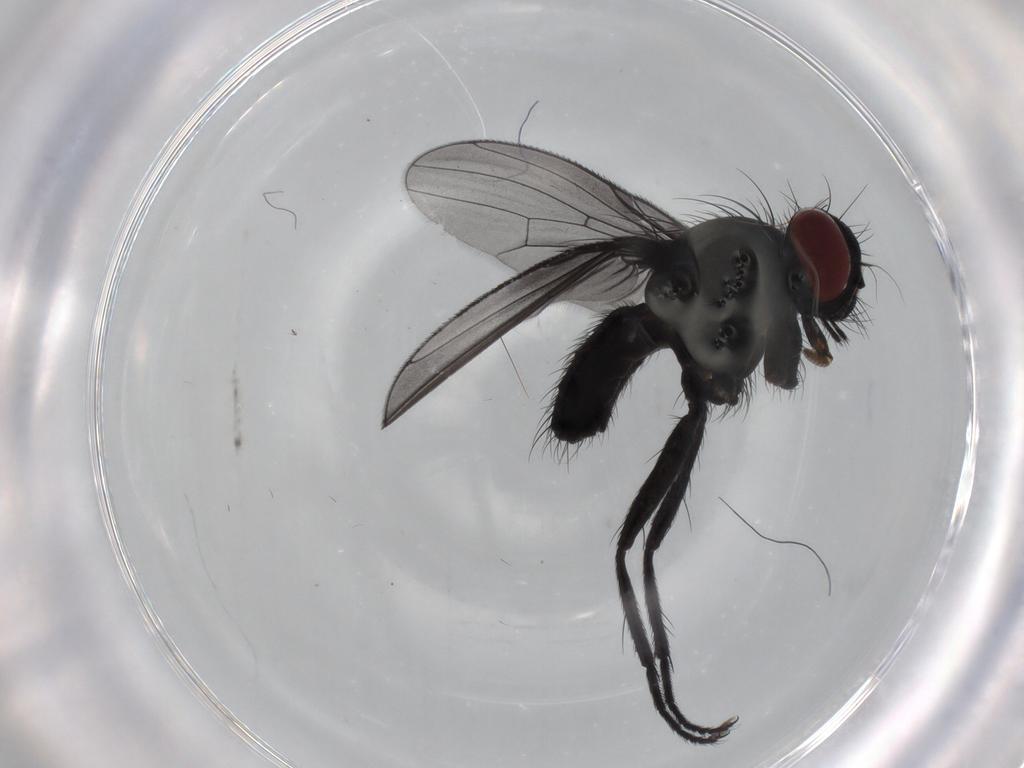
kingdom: Animalia
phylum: Arthropoda
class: Insecta
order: Diptera
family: Muscidae
